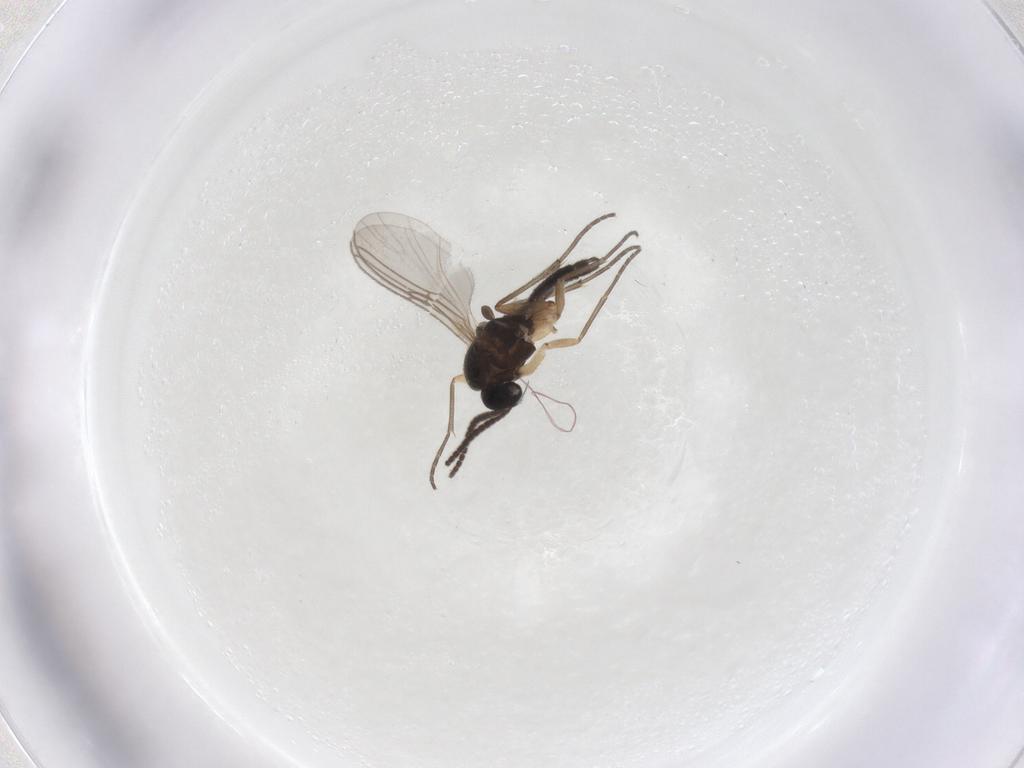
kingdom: Animalia
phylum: Arthropoda
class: Insecta
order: Diptera
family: Sciaridae
